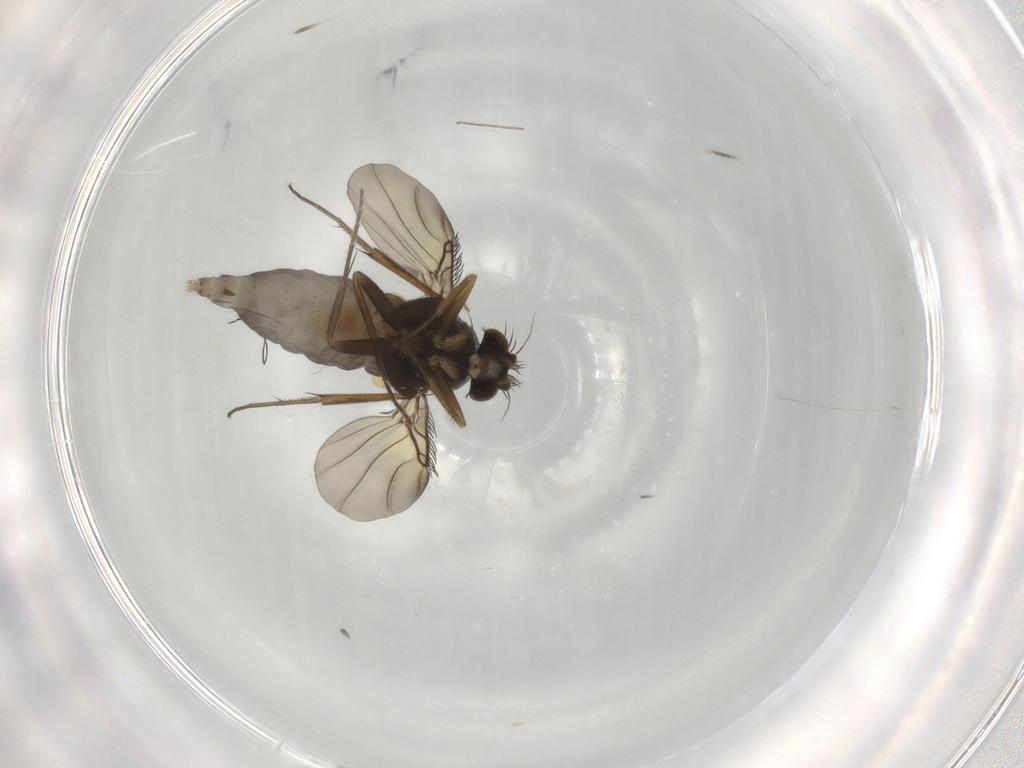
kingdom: Animalia
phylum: Arthropoda
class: Insecta
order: Diptera
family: Phoridae
